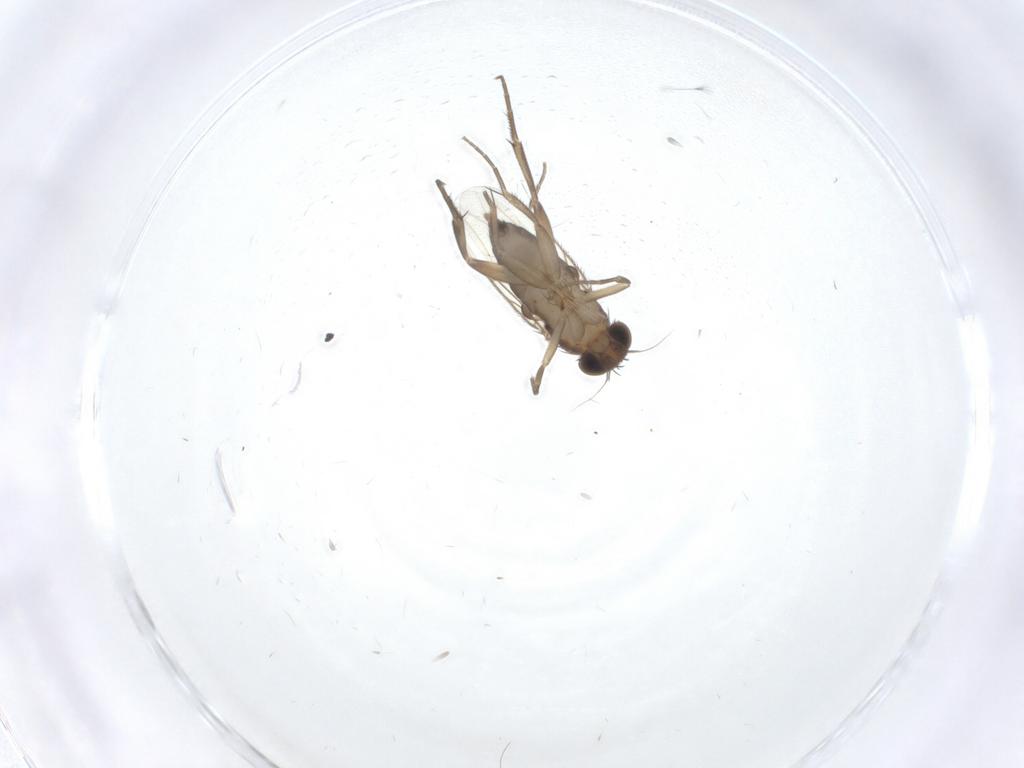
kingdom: Animalia
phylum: Arthropoda
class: Insecta
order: Diptera
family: Phoridae
